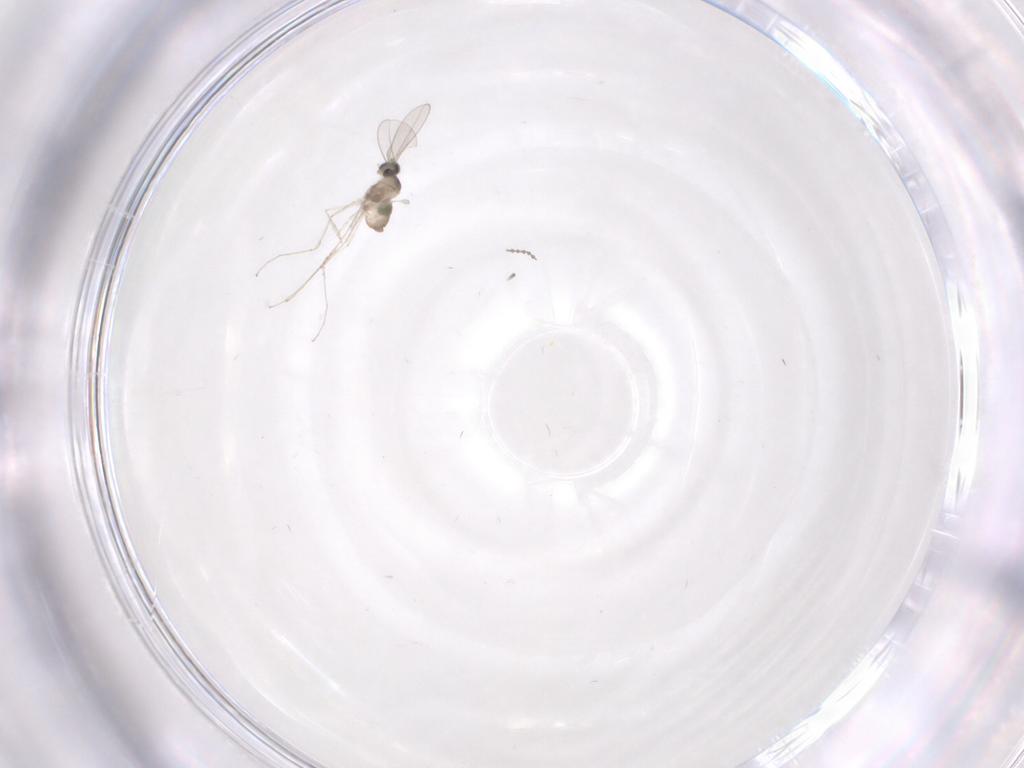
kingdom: Animalia
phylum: Arthropoda
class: Insecta
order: Diptera
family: Cecidomyiidae
